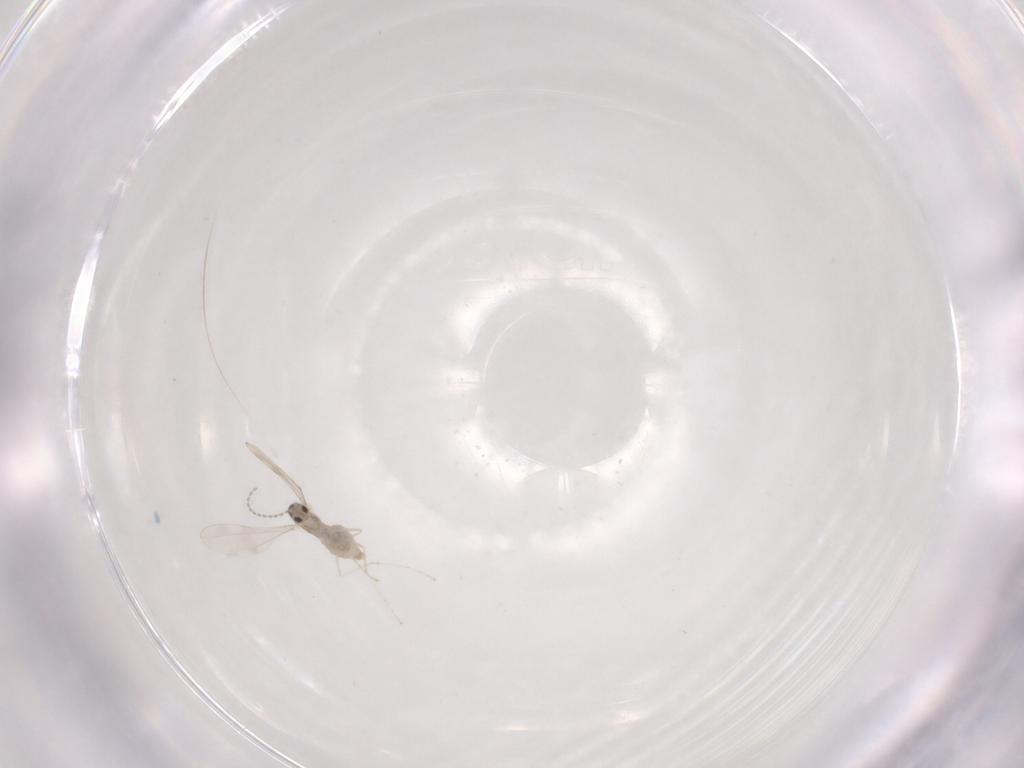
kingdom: Animalia
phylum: Arthropoda
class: Insecta
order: Diptera
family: Cecidomyiidae
